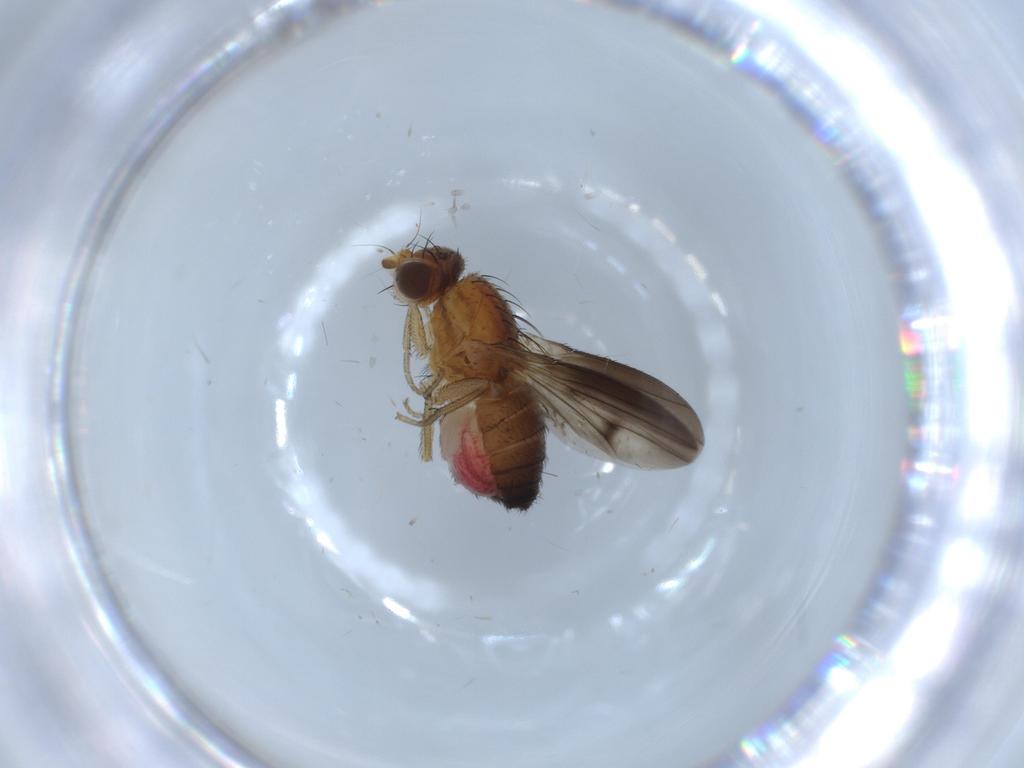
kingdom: Animalia
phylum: Arthropoda
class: Insecta
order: Diptera
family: Heleomyzidae
